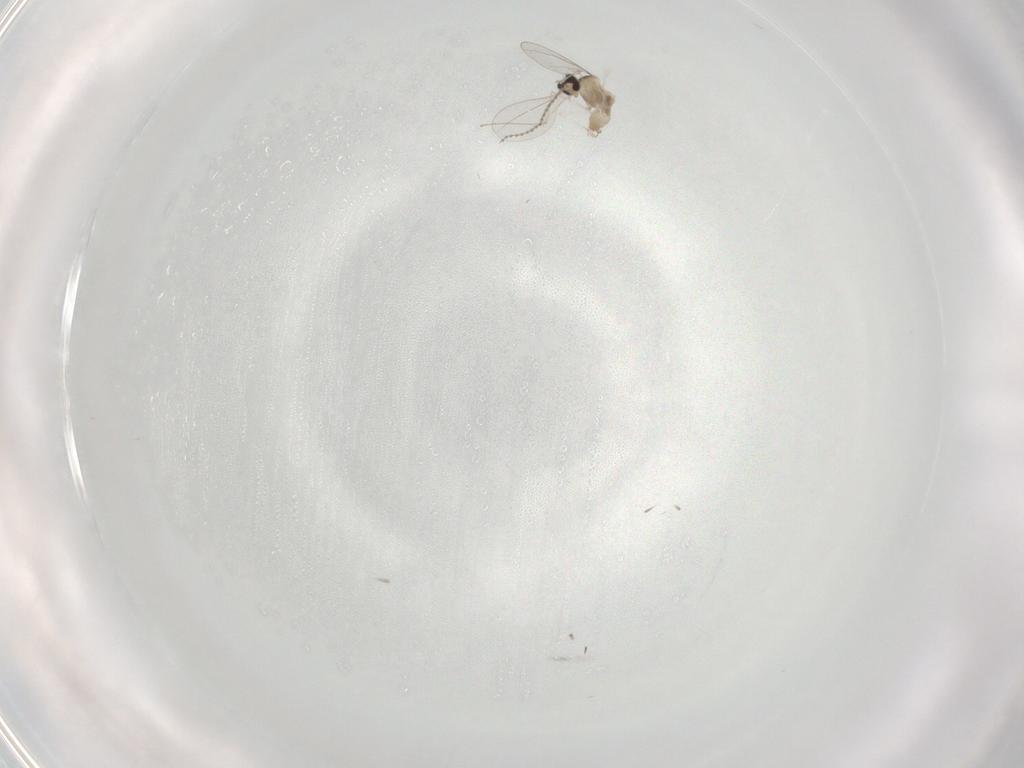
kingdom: Animalia
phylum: Arthropoda
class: Insecta
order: Diptera
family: Cecidomyiidae
